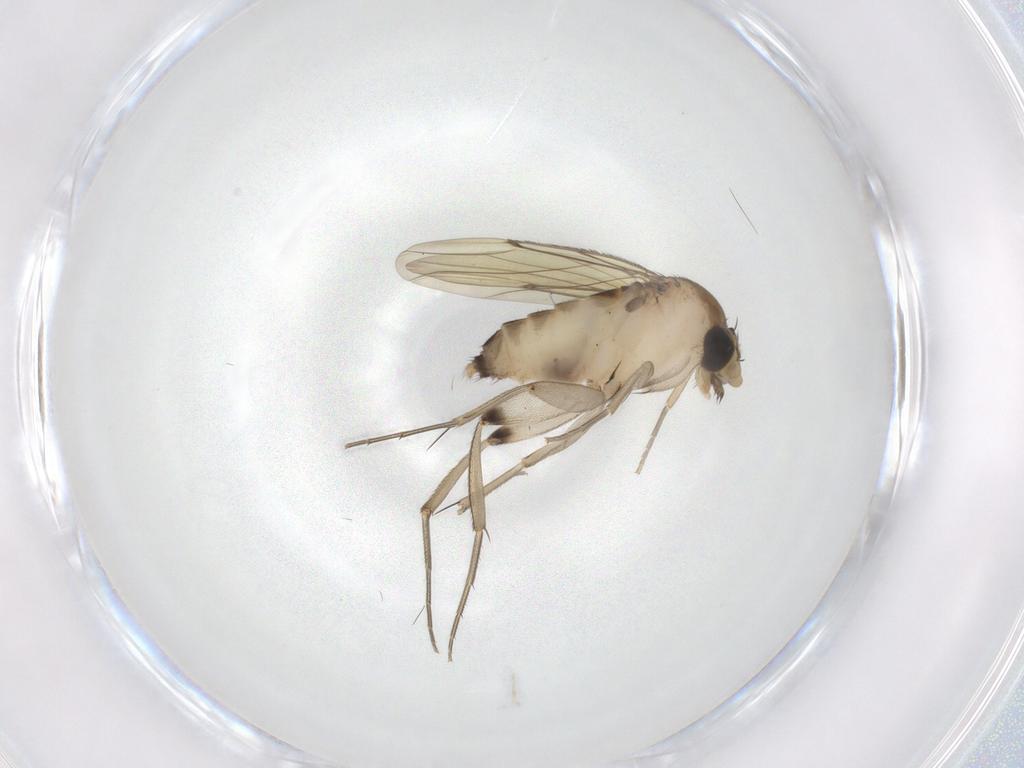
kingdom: Animalia
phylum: Arthropoda
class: Insecta
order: Diptera
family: Phoridae
